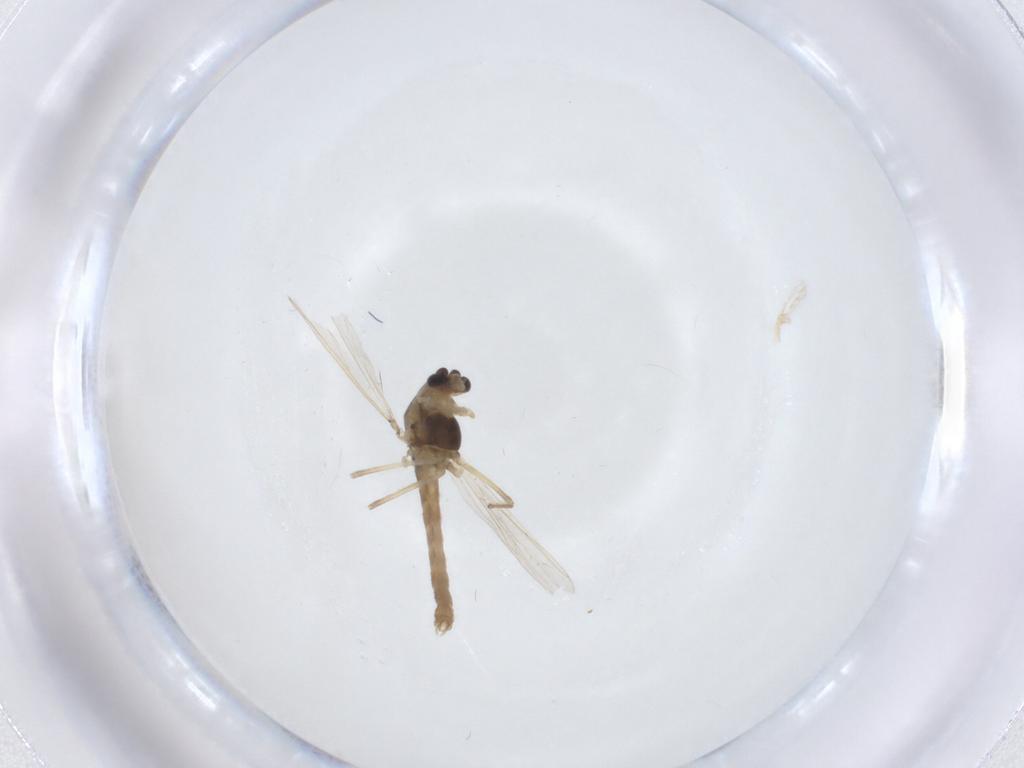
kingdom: Animalia
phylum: Arthropoda
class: Insecta
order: Diptera
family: Chironomidae
